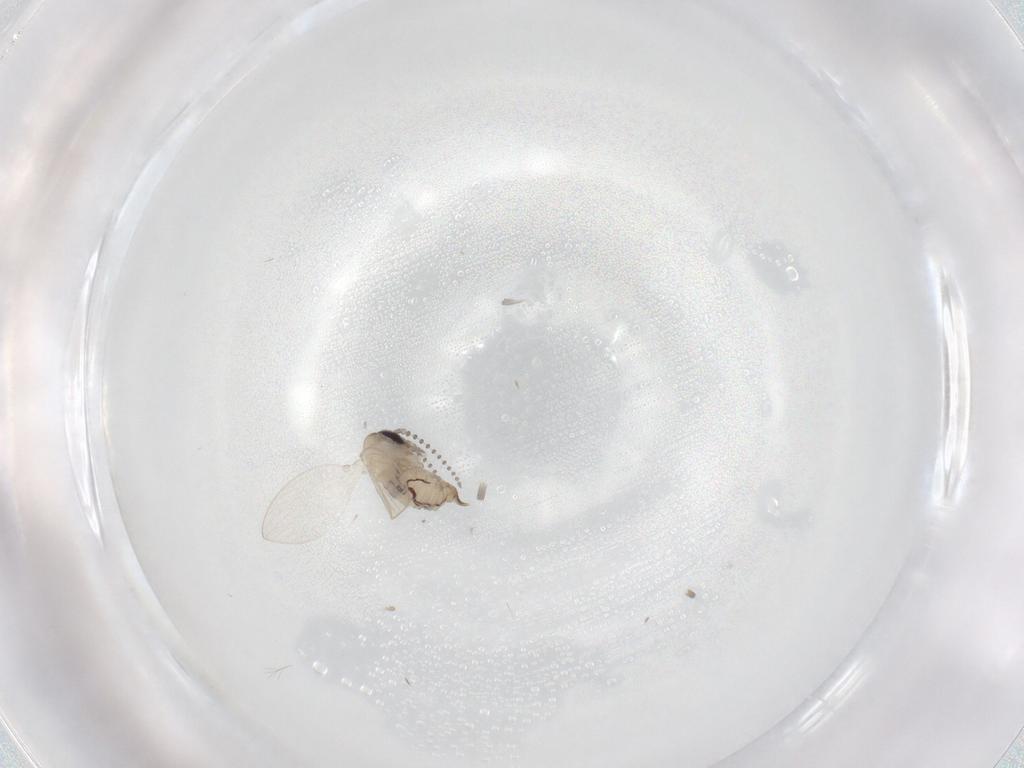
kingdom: Animalia
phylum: Arthropoda
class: Insecta
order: Diptera
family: Psychodidae
